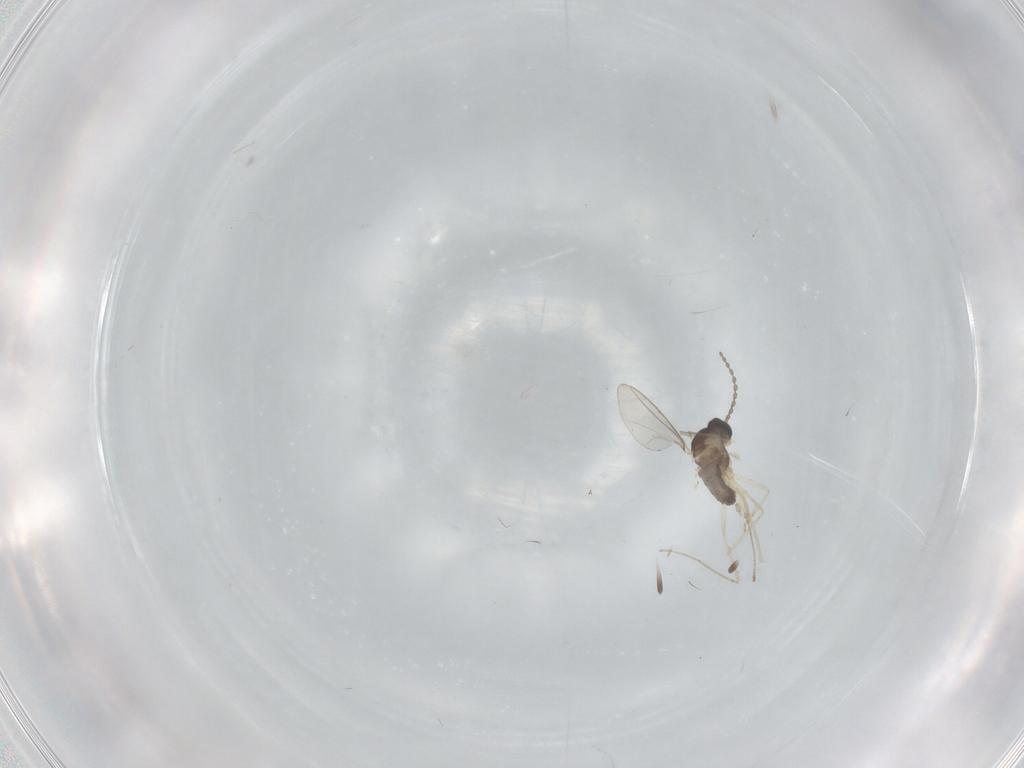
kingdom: Animalia
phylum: Arthropoda
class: Insecta
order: Diptera
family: Cecidomyiidae
